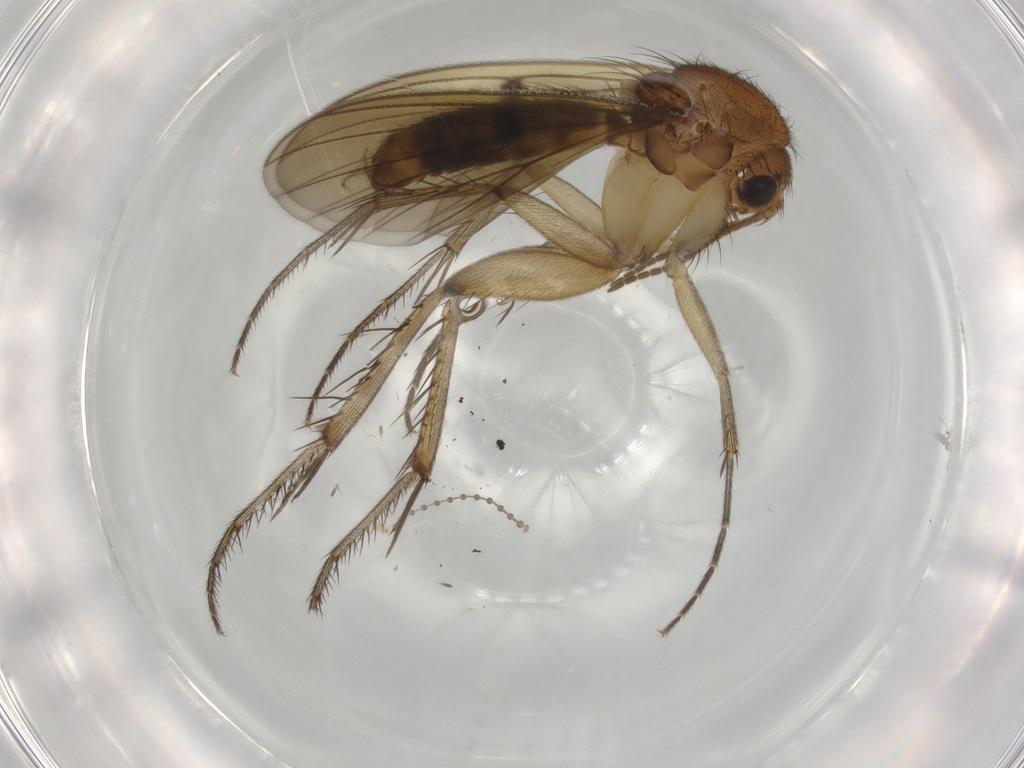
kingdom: Animalia
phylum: Arthropoda
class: Insecta
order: Diptera
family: Mycetophilidae
